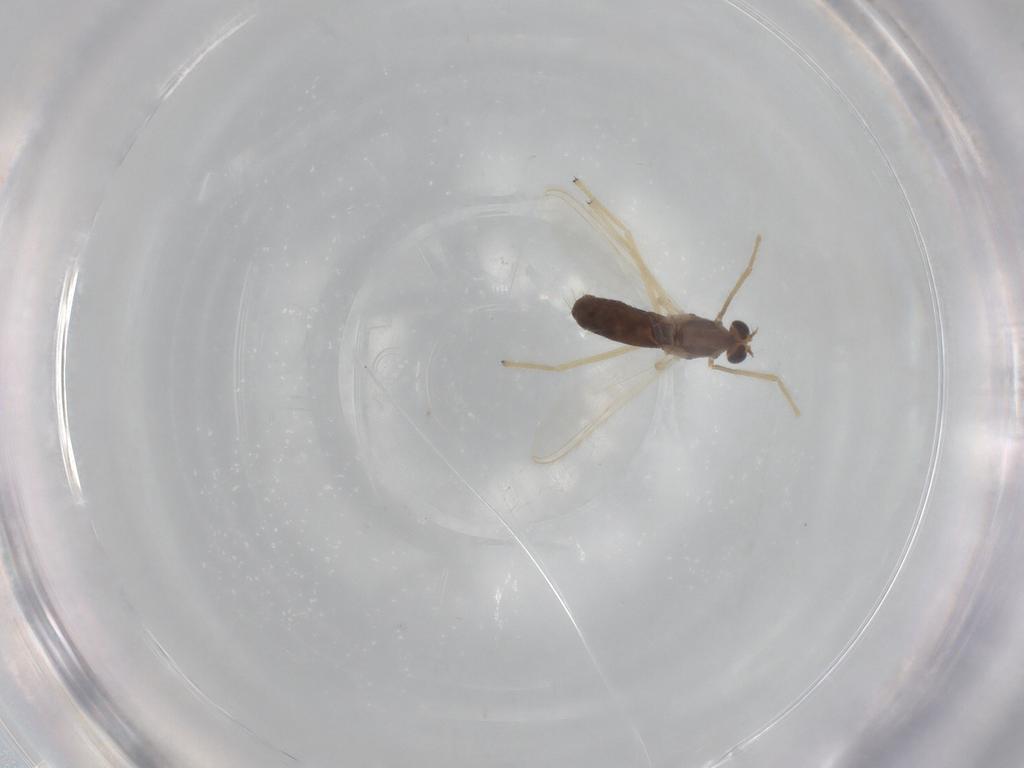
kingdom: Animalia
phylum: Arthropoda
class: Insecta
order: Diptera
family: Chironomidae
